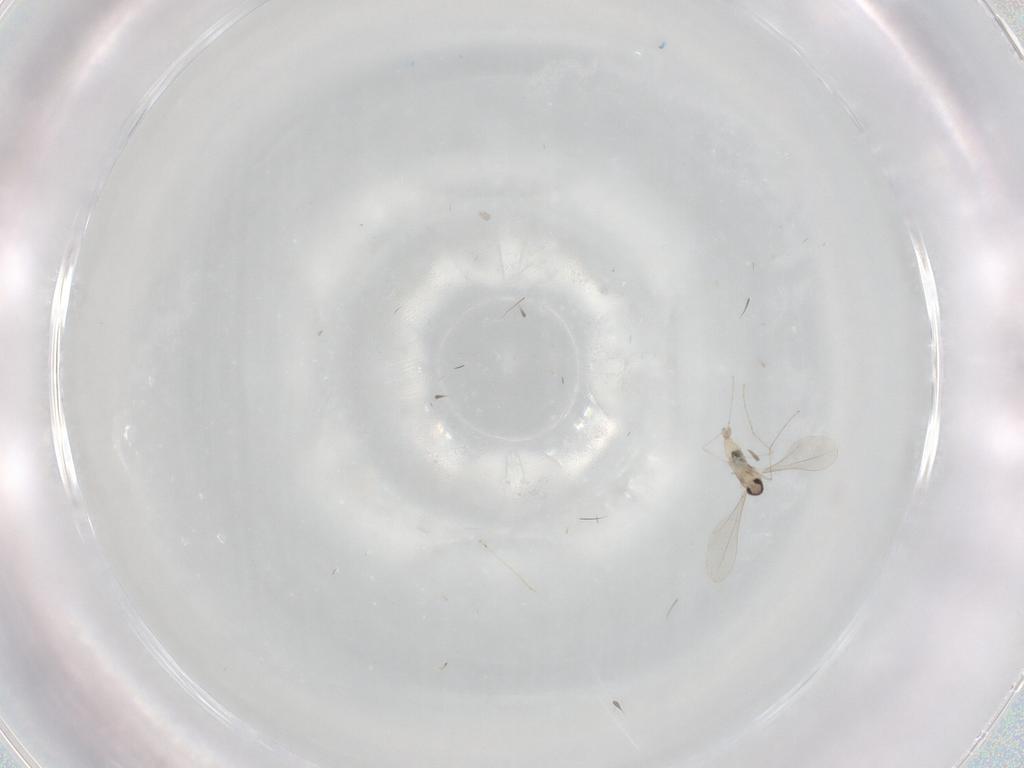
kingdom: Animalia
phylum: Arthropoda
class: Insecta
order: Diptera
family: Cecidomyiidae
